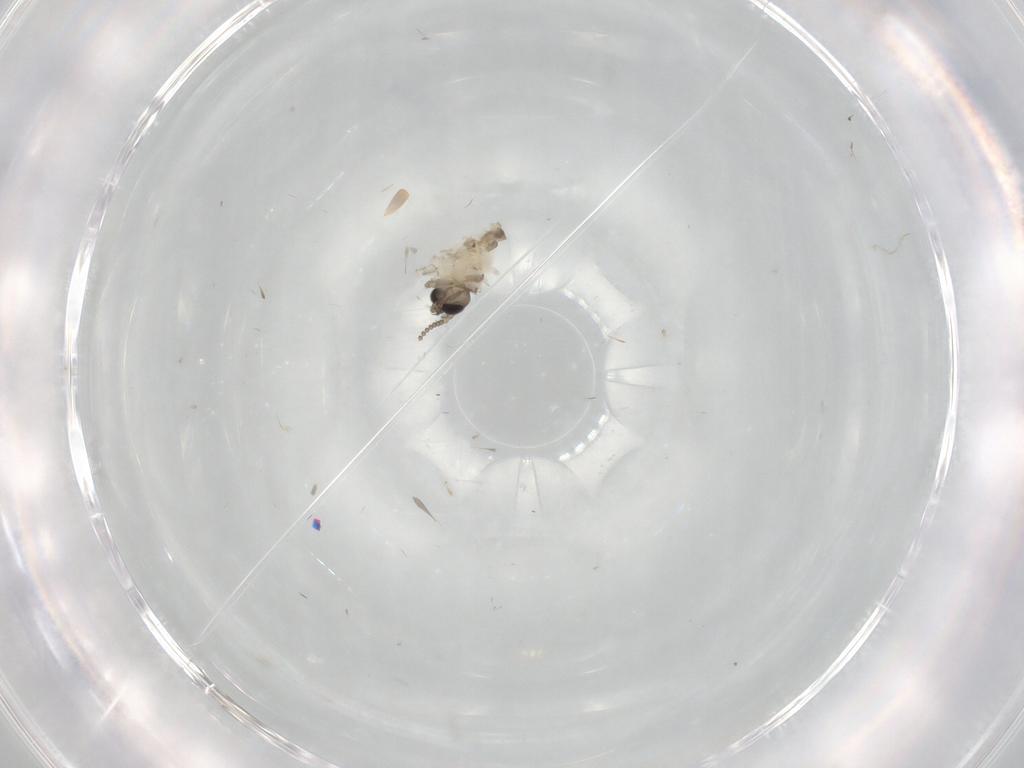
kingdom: Animalia
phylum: Arthropoda
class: Insecta
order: Diptera
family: Psychodidae
